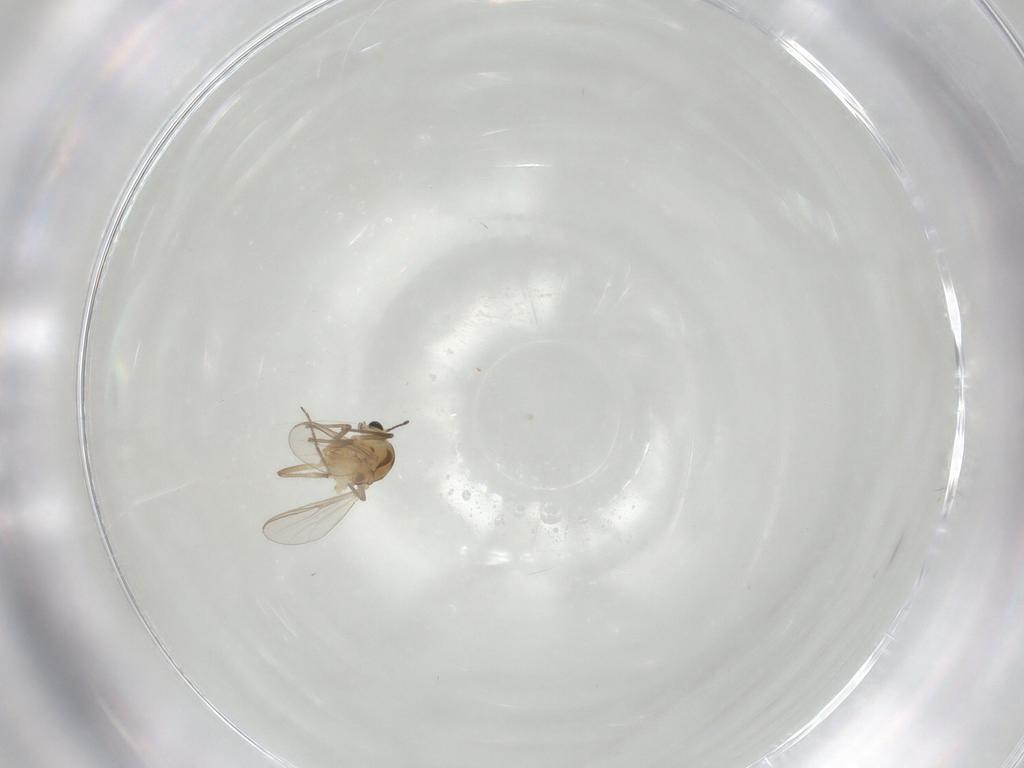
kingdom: Animalia
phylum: Arthropoda
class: Insecta
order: Diptera
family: Chironomidae
